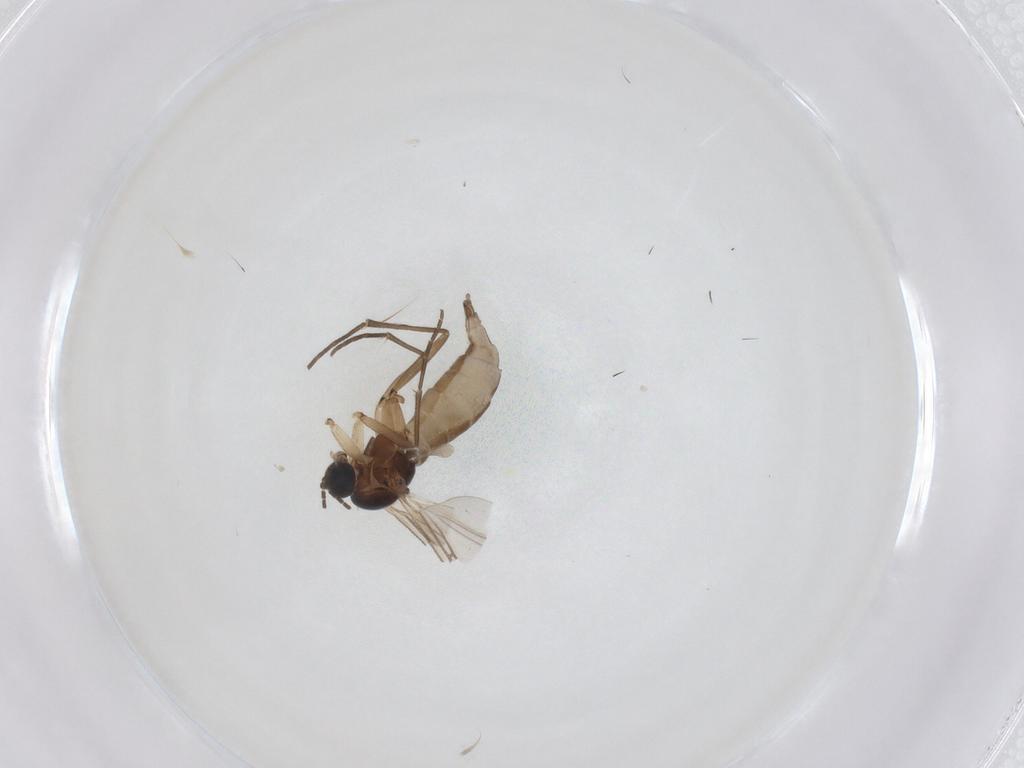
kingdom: Animalia
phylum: Arthropoda
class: Insecta
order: Diptera
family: Sciaridae
